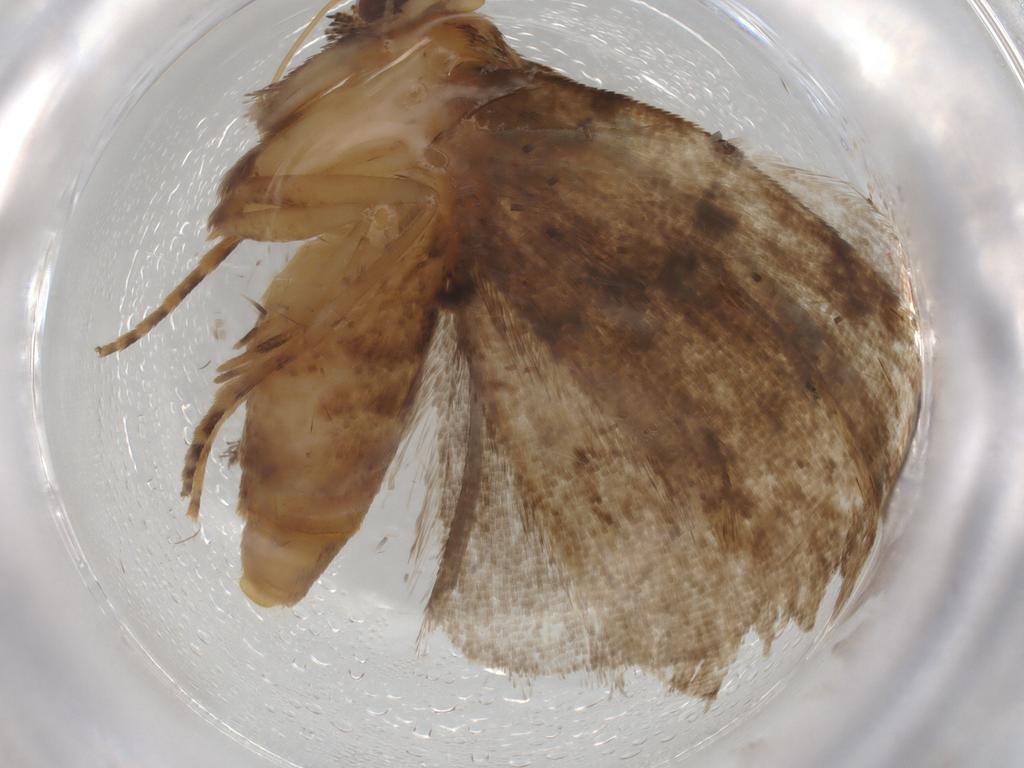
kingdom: Animalia
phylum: Arthropoda
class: Insecta
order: Lepidoptera
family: Erebidae
